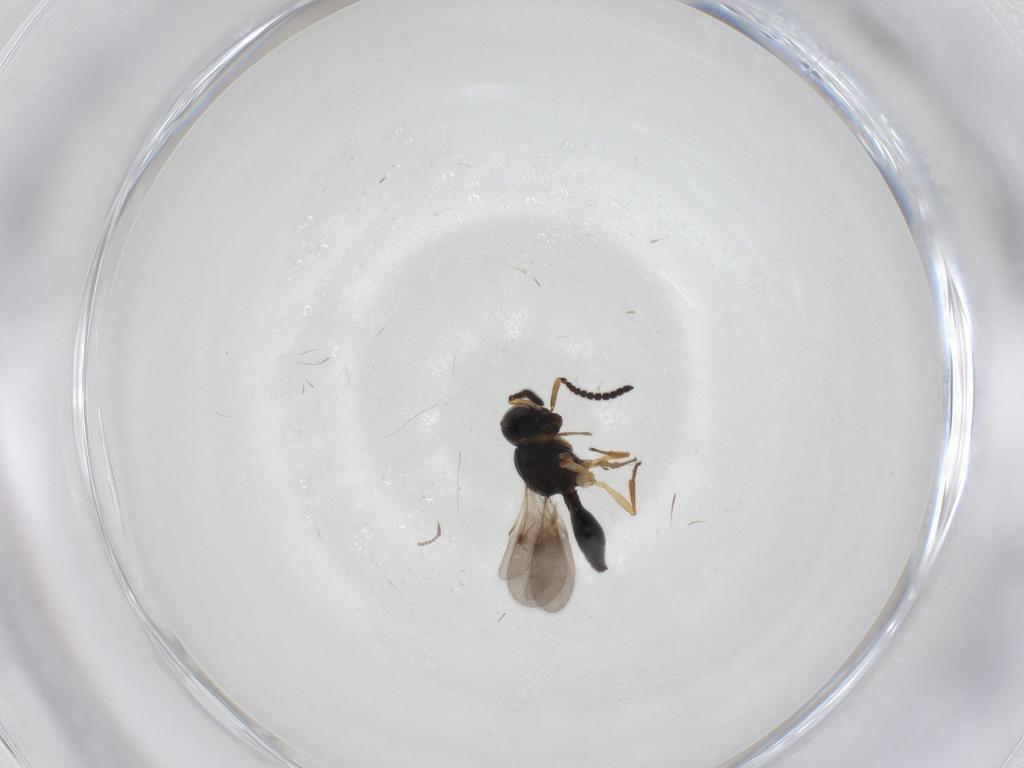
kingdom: Animalia
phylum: Arthropoda
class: Insecta
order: Hymenoptera
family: Scelionidae
